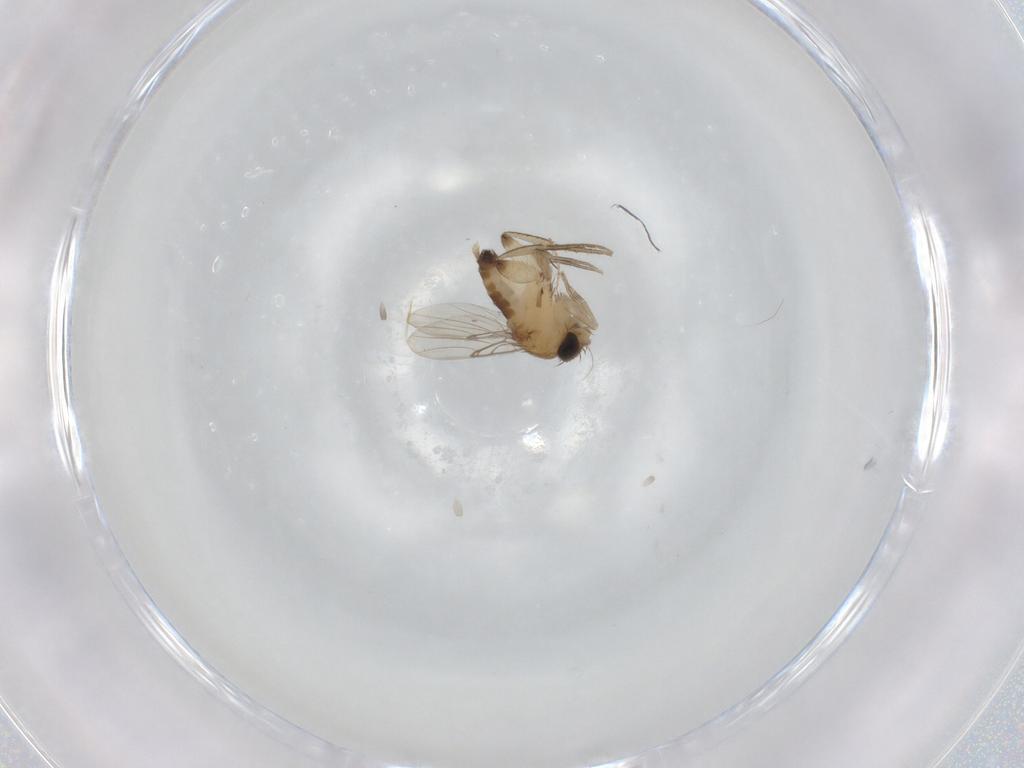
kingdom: Animalia
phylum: Arthropoda
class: Insecta
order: Diptera
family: Phoridae
